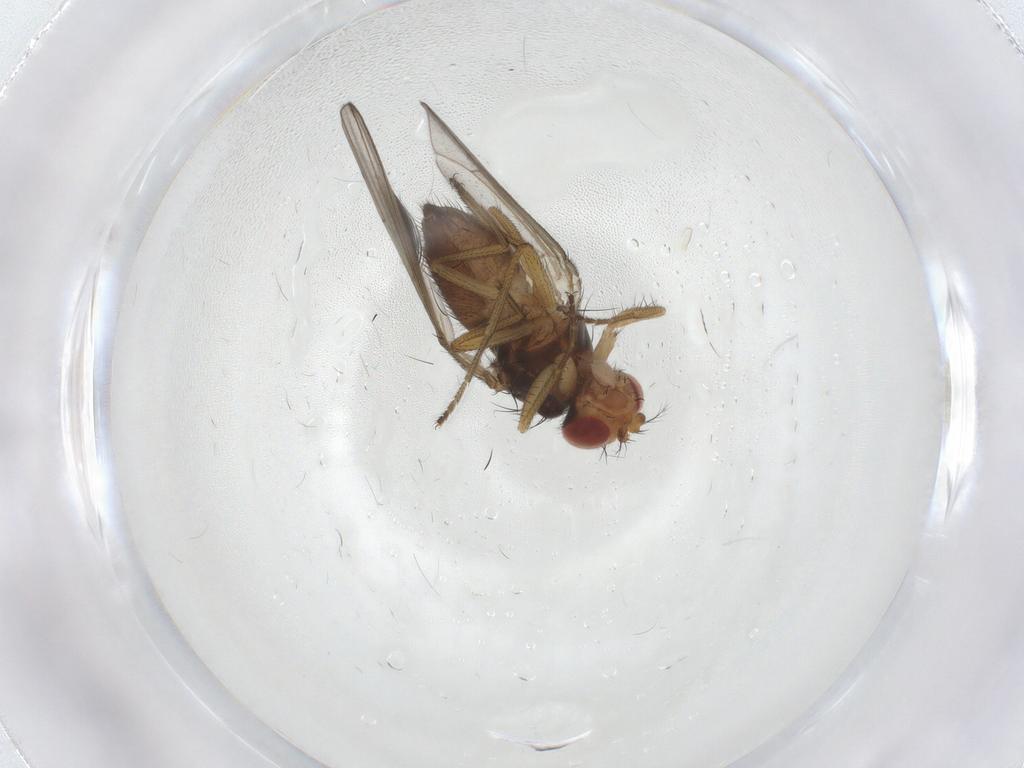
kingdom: Animalia
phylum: Arthropoda
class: Insecta
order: Diptera
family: Drosophilidae
